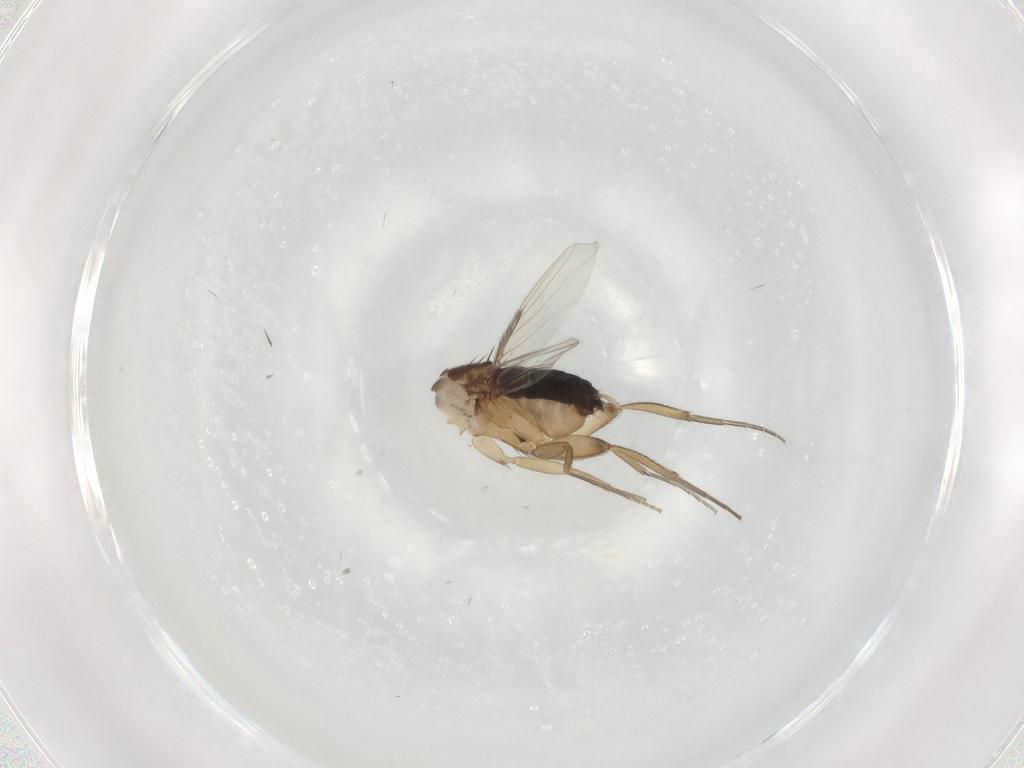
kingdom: Animalia
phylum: Arthropoda
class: Insecta
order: Diptera
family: Phoridae
